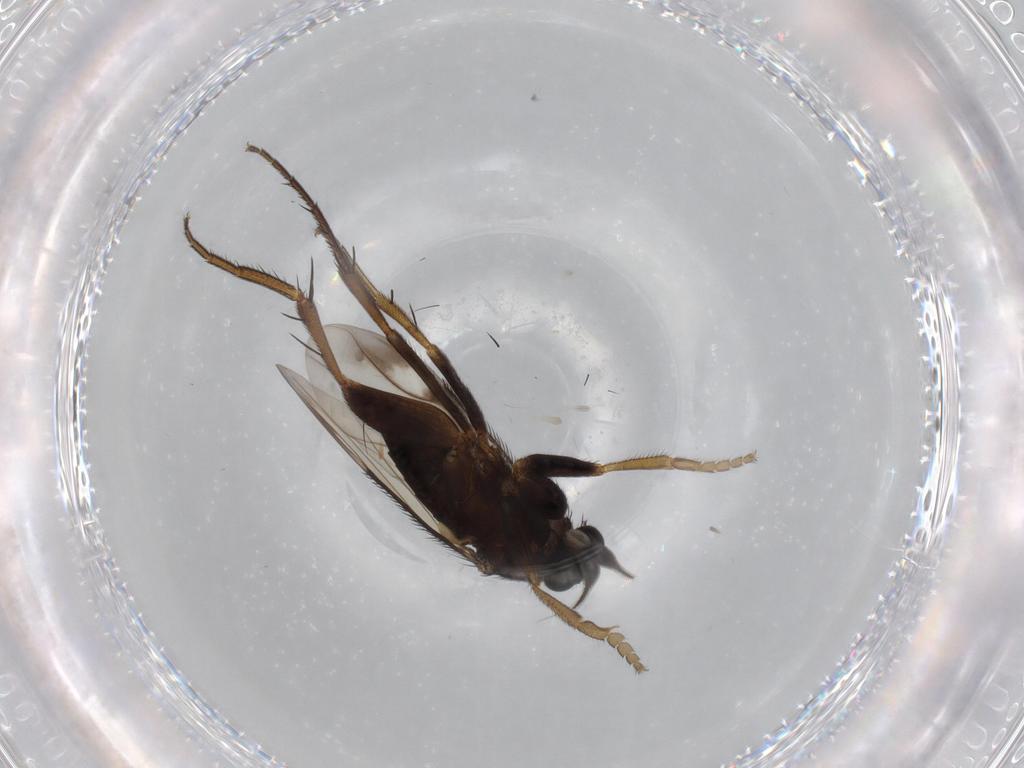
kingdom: Animalia
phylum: Arthropoda
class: Insecta
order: Diptera
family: Phoridae
